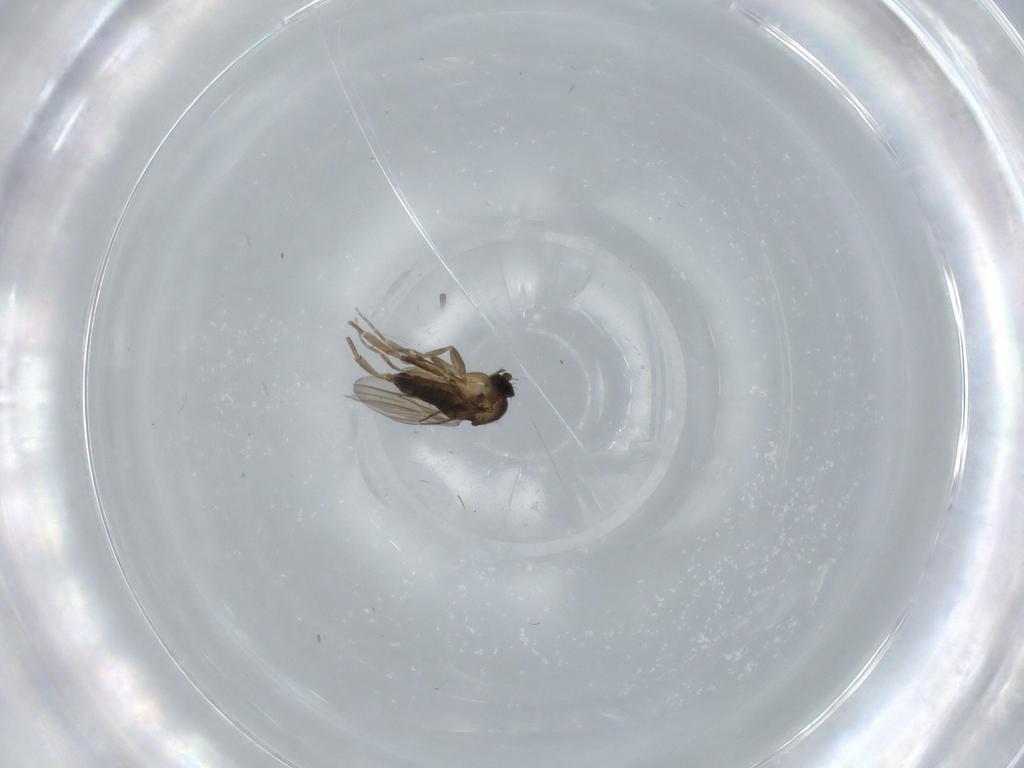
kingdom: Animalia
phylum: Arthropoda
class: Insecta
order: Diptera
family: Phoridae
